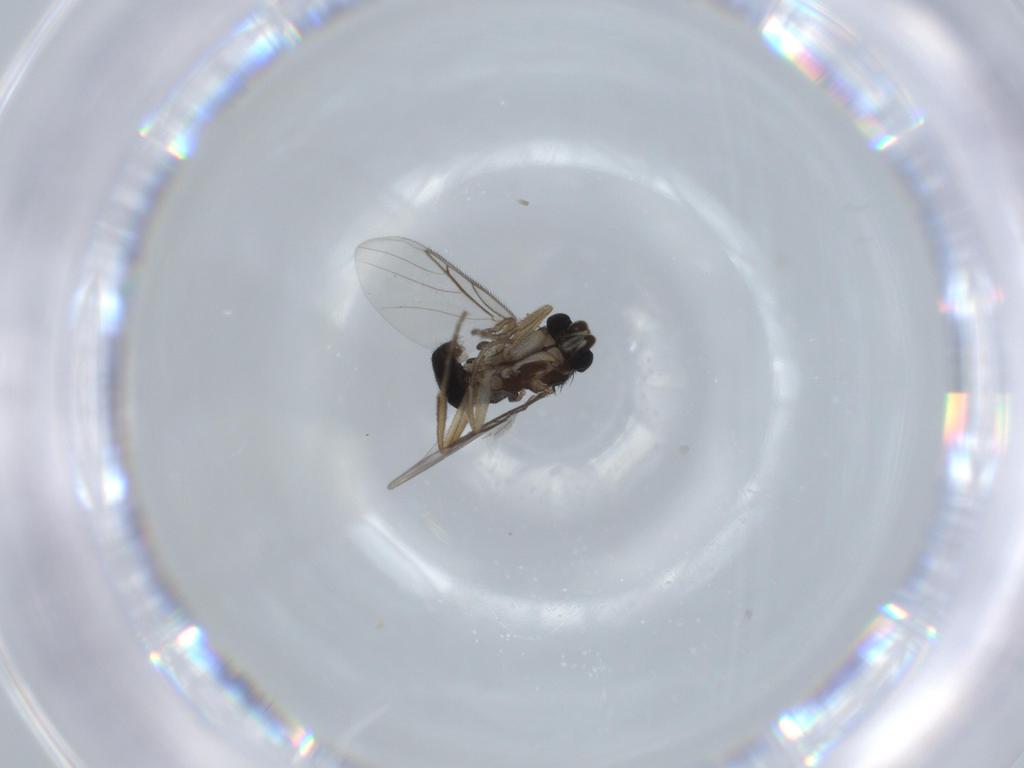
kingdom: Animalia
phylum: Arthropoda
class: Insecta
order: Diptera
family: Phoridae
